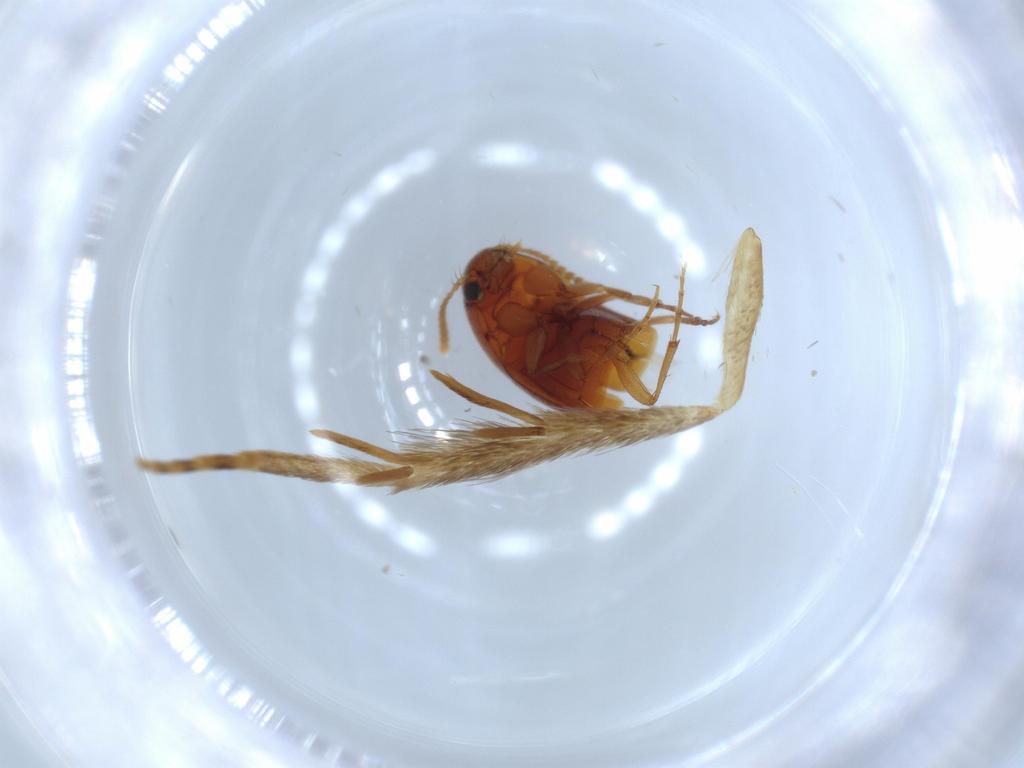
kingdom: Animalia
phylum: Arthropoda
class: Insecta
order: Coleoptera
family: Staphylinidae
